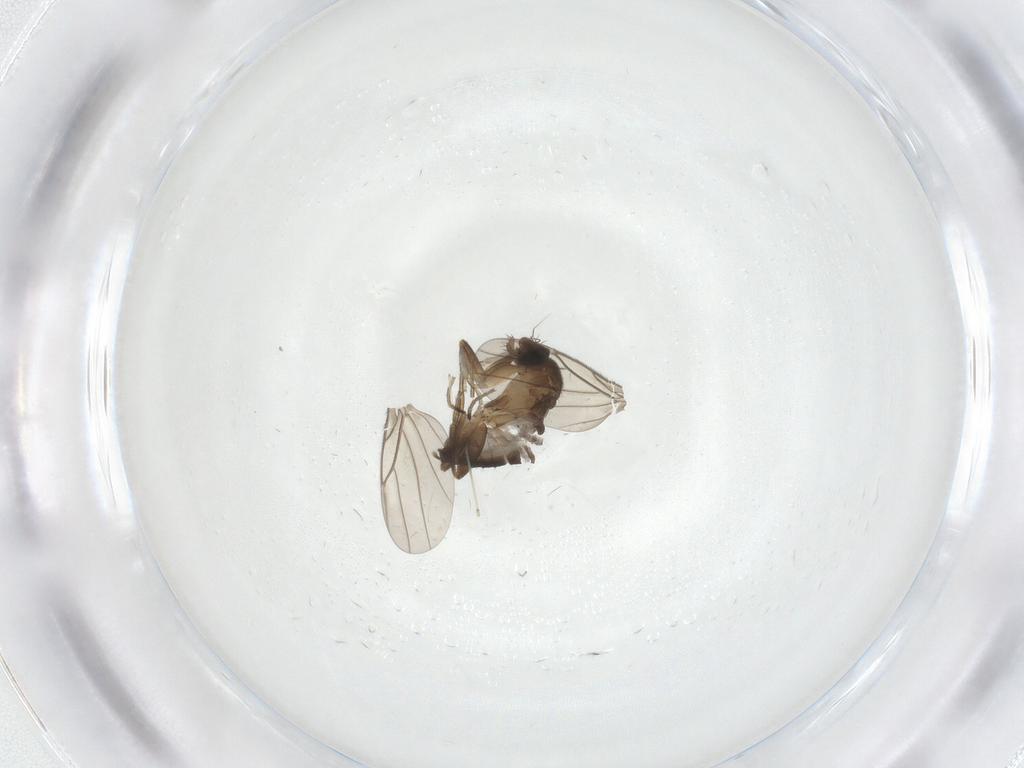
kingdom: Animalia
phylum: Arthropoda
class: Insecta
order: Diptera
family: Cecidomyiidae
